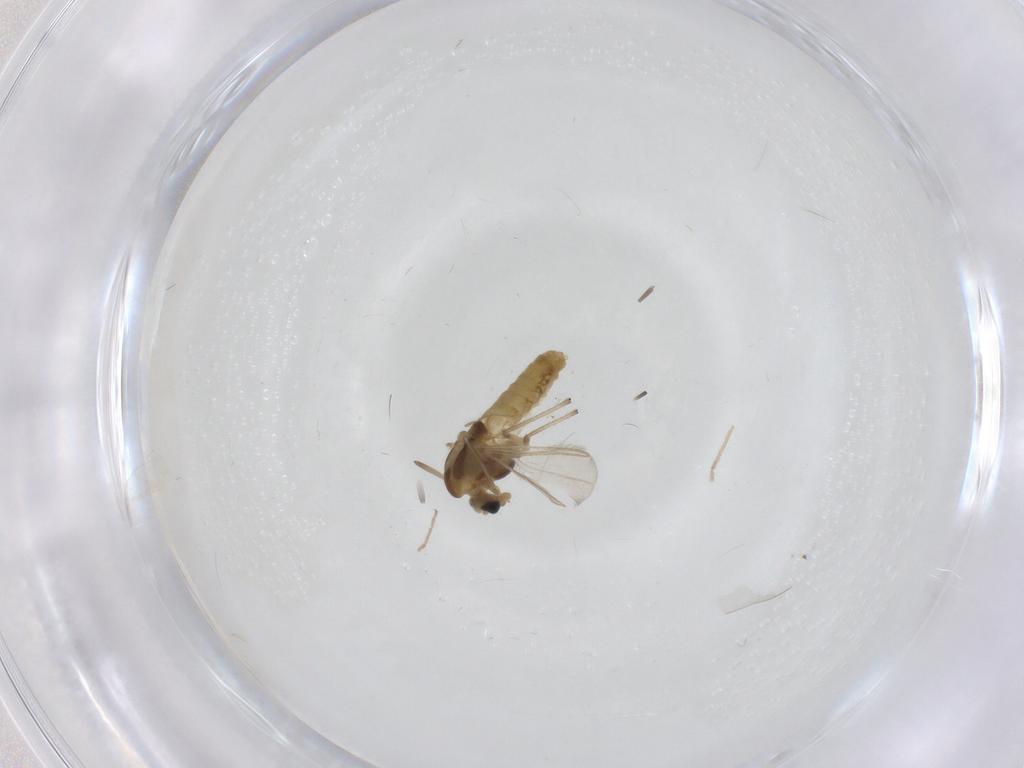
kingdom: Animalia
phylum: Arthropoda
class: Insecta
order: Diptera
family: Chironomidae
